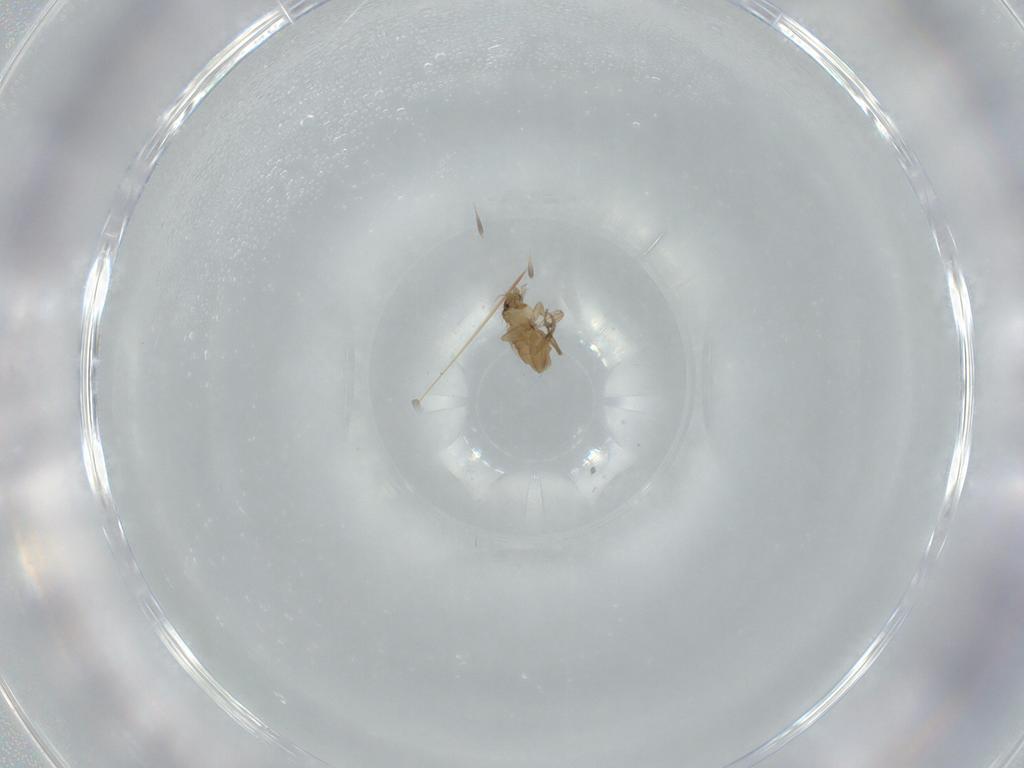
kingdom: Animalia
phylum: Arthropoda
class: Insecta
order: Diptera
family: Phoridae
